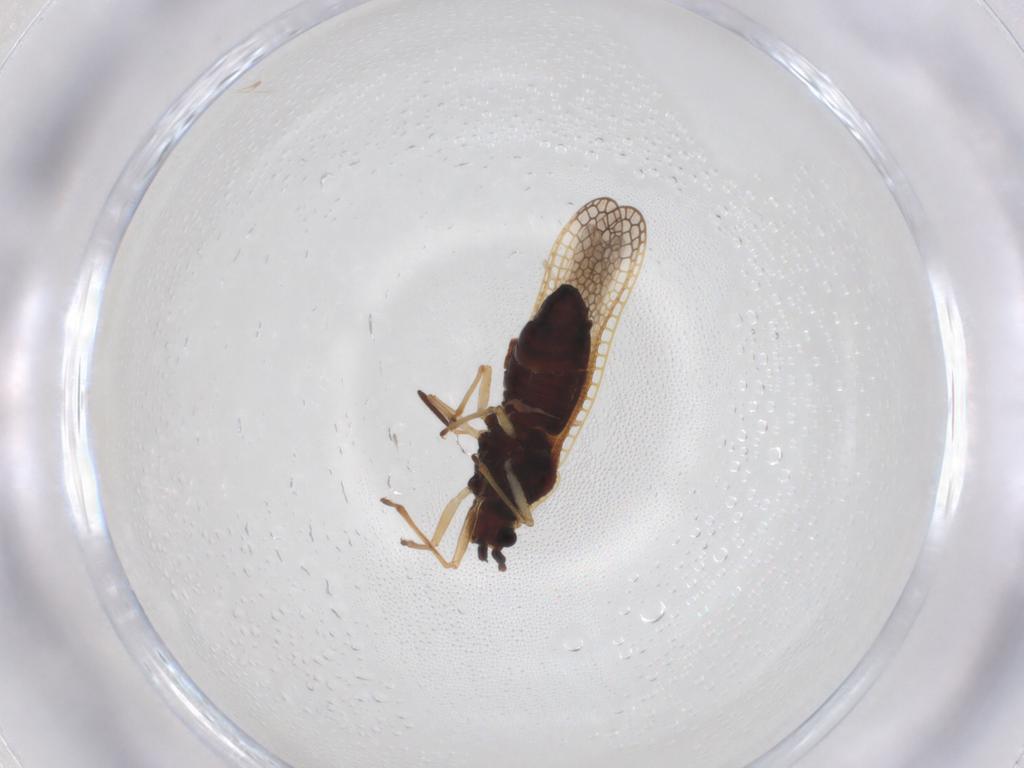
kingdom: Animalia
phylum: Arthropoda
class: Insecta
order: Hemiptera
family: Tingidae
